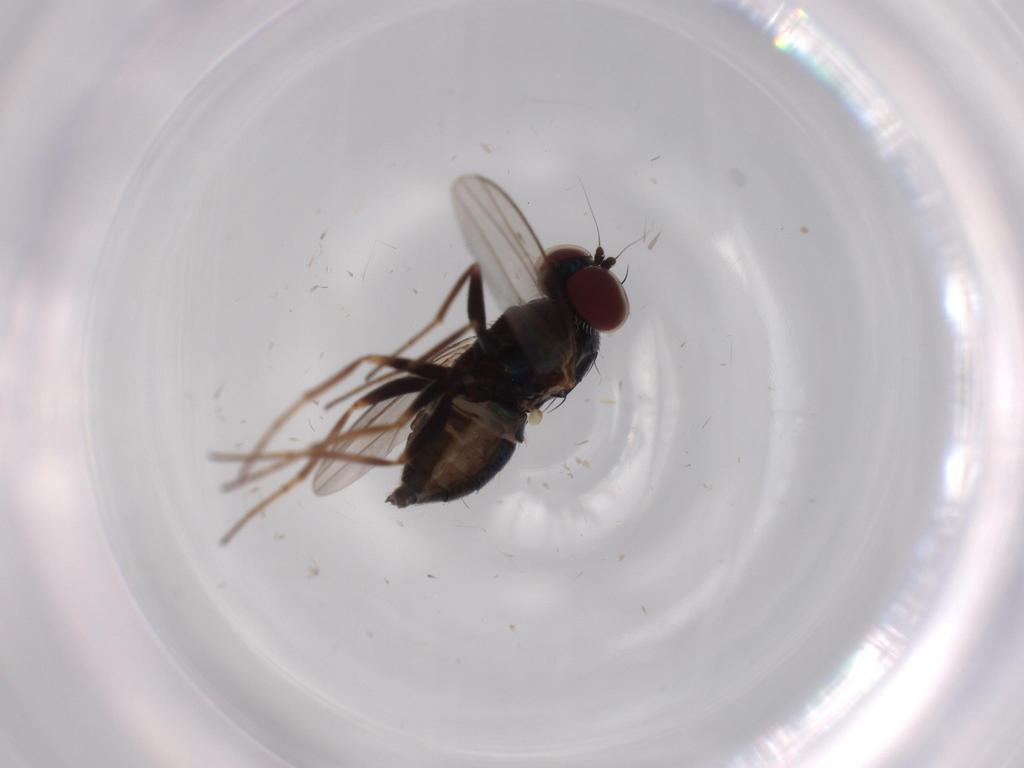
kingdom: Animalia
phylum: Arthropoda
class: Insecta
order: Diptera
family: Dolichopodidae
